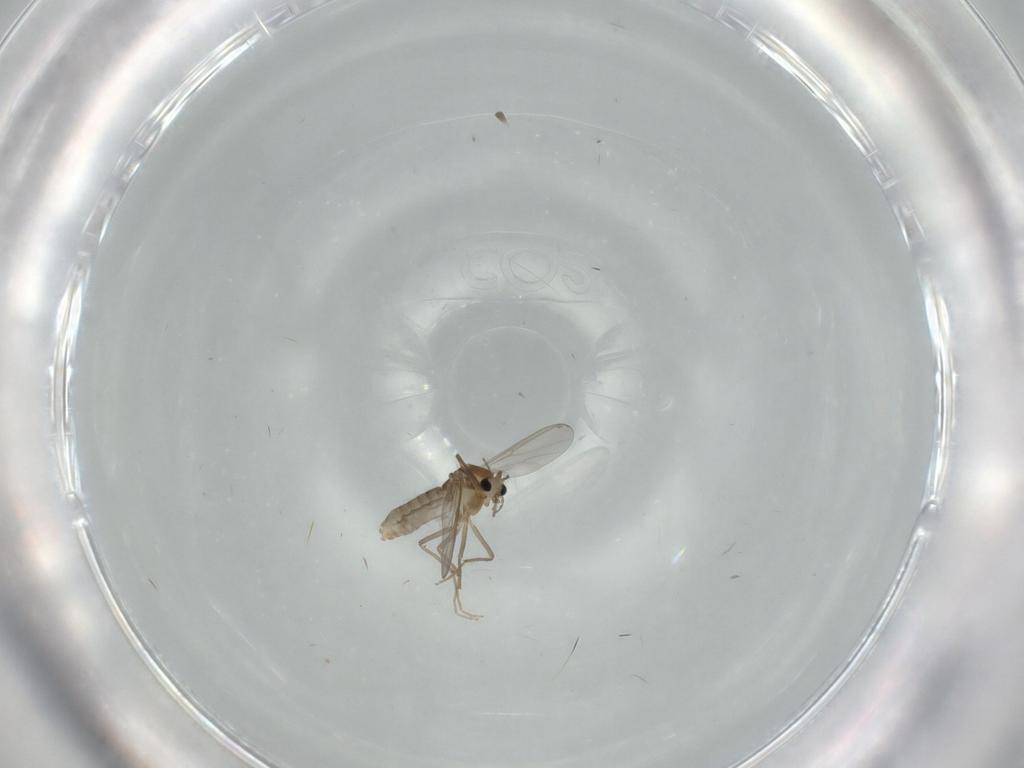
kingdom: Animalia
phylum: Arthropoda
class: Insecta
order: Diptera
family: Chironomidae
